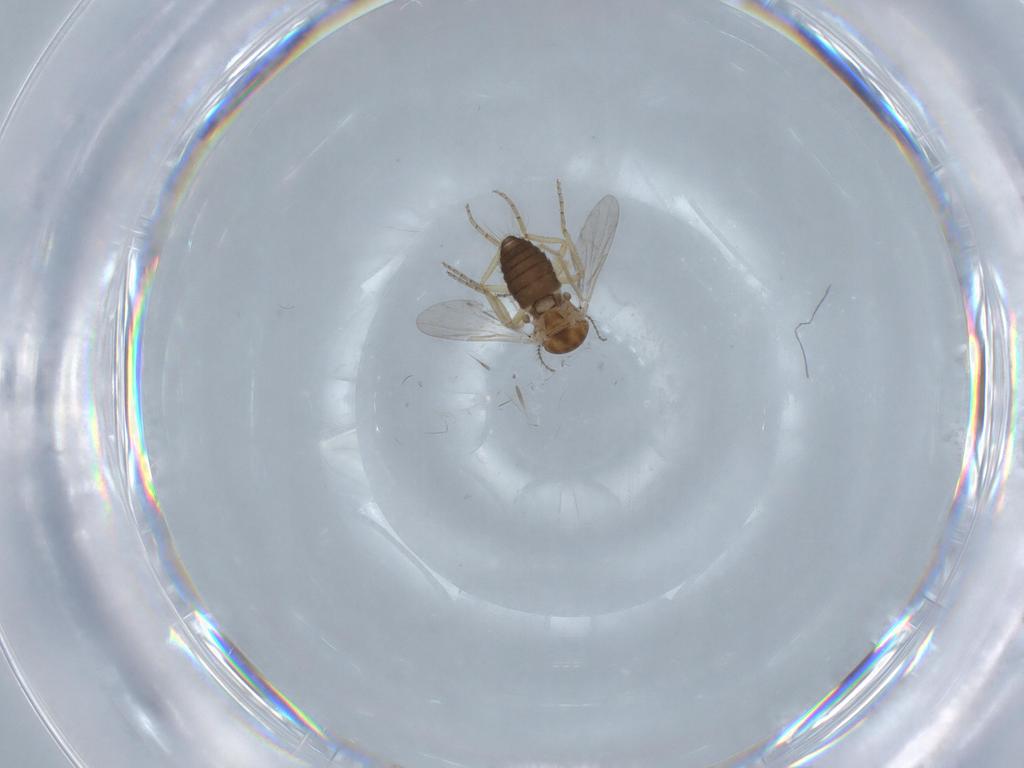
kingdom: Animalia
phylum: Arthropoda
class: Insecta
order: Diptera
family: Ceratopogonidae
